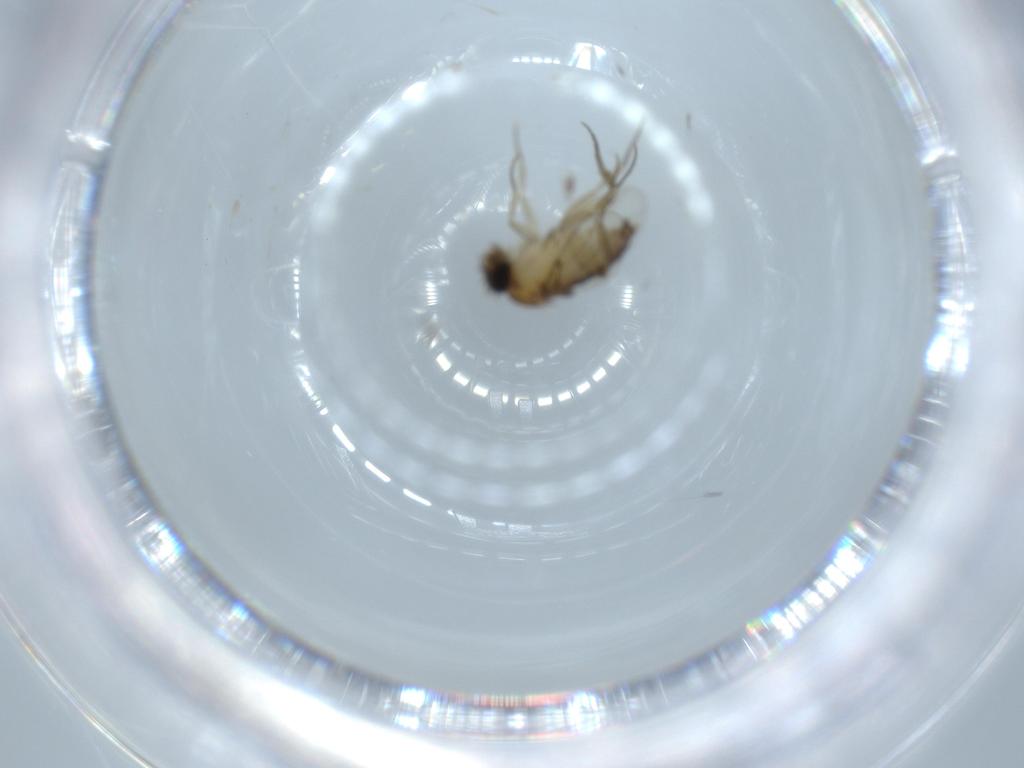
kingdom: Animalia
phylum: Arthropoda
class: Insecta
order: Diptera
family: Phoridae
